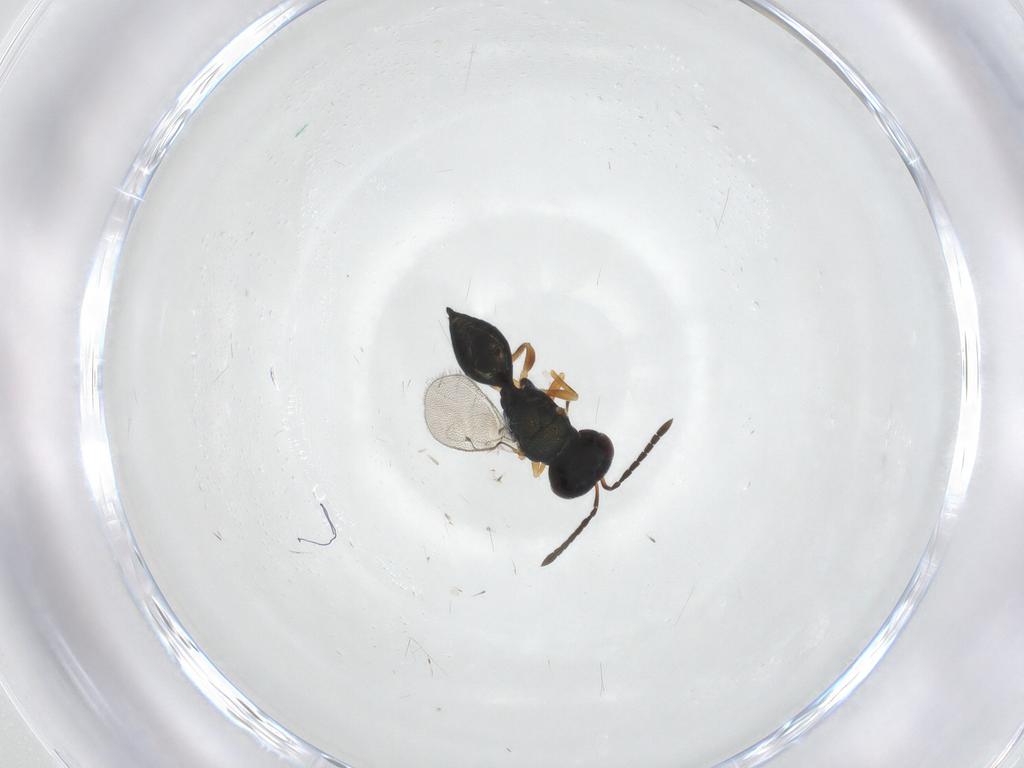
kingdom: Animalia
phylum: Arthropoda
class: Insecta
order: Hymenoptera
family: Pteromalidae
